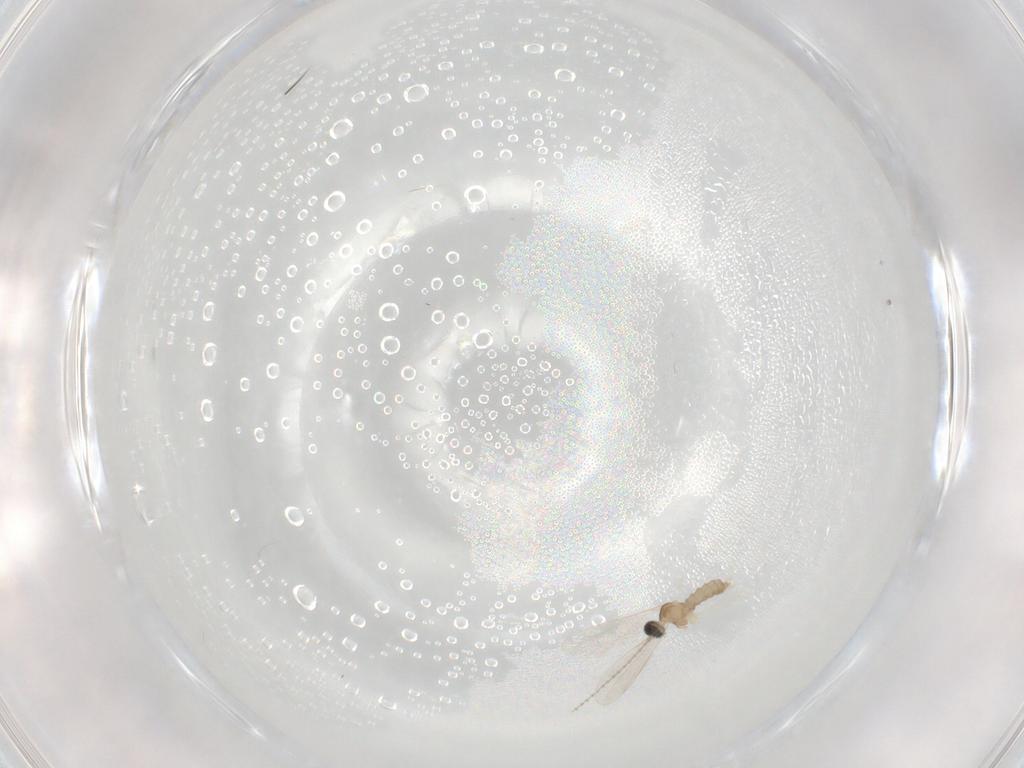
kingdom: Animalia
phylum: Arthropoda
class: Insecta
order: Diptera
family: Cecidomyiidae
